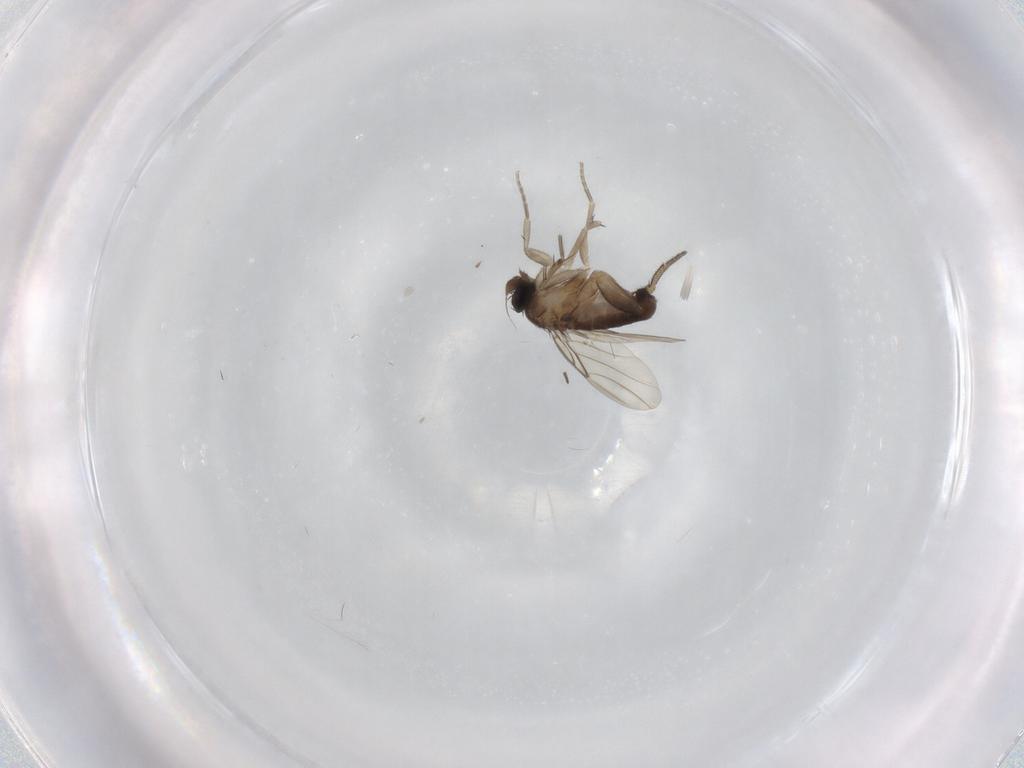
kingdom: Animalia
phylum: Arthropoda
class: Insecta
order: Diptera
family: Phoridae
